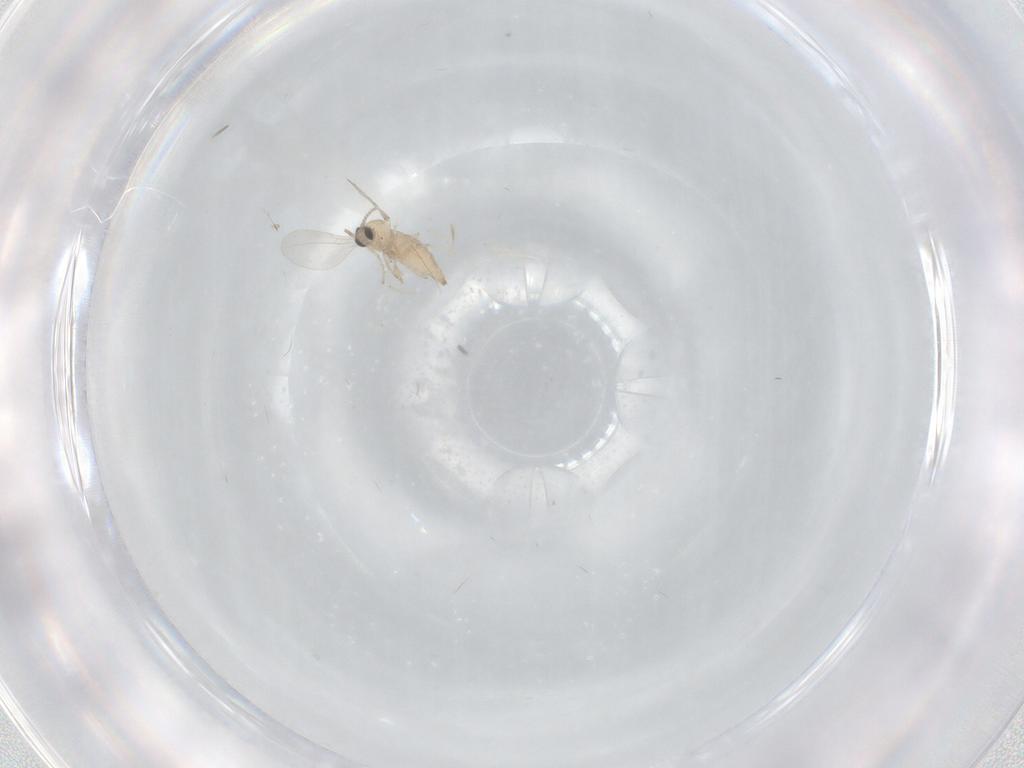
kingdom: Animalia
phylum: Arthropoda
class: Insecta
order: Diptera
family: Cecidomyiidae
